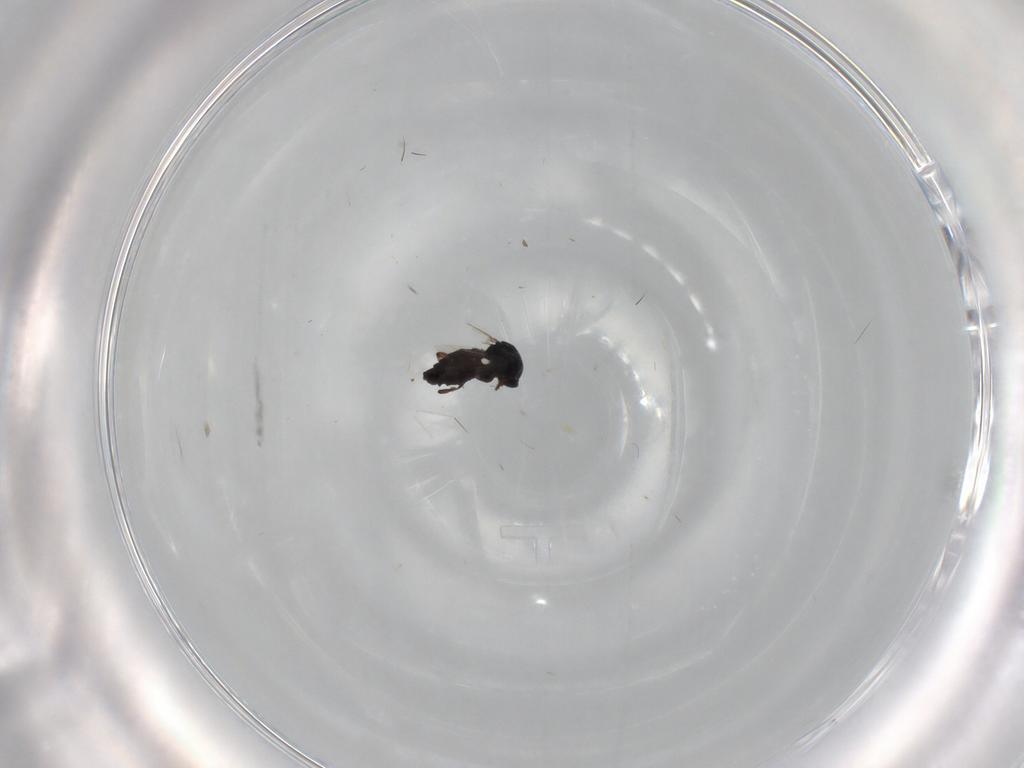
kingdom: Animalia
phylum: Arthropoda
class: Insecta
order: Diptera
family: Ceratopogonidae
